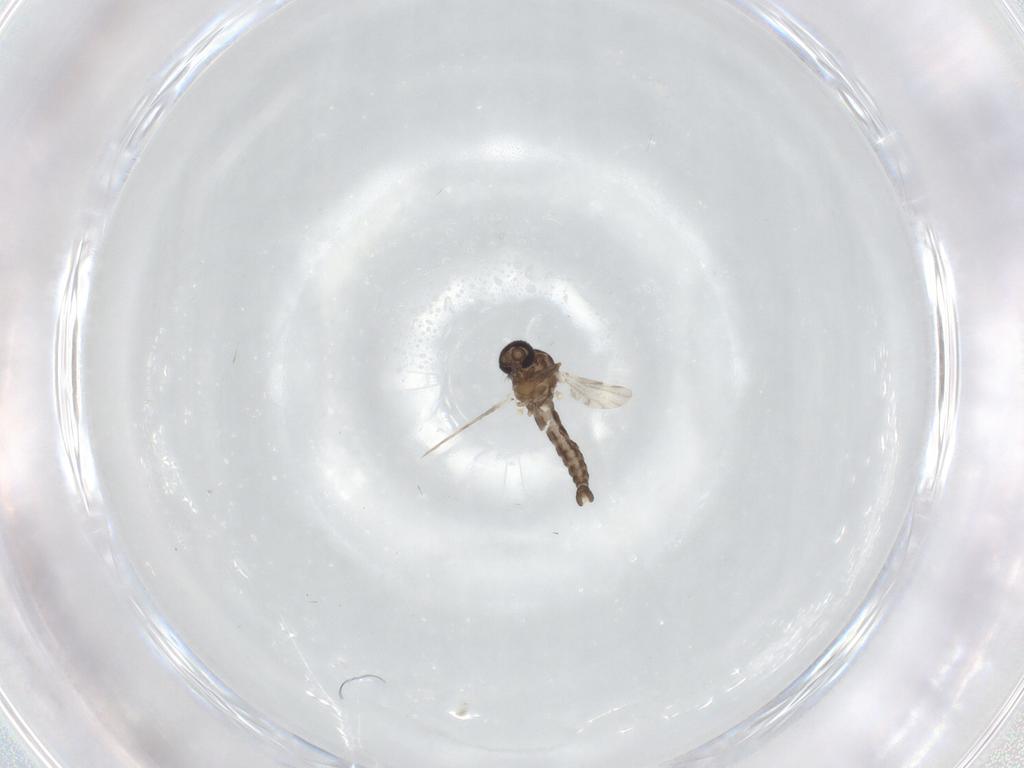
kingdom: Animalia
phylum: Arthropoda
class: Insecta
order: Diptera
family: Ceratopogonidae
